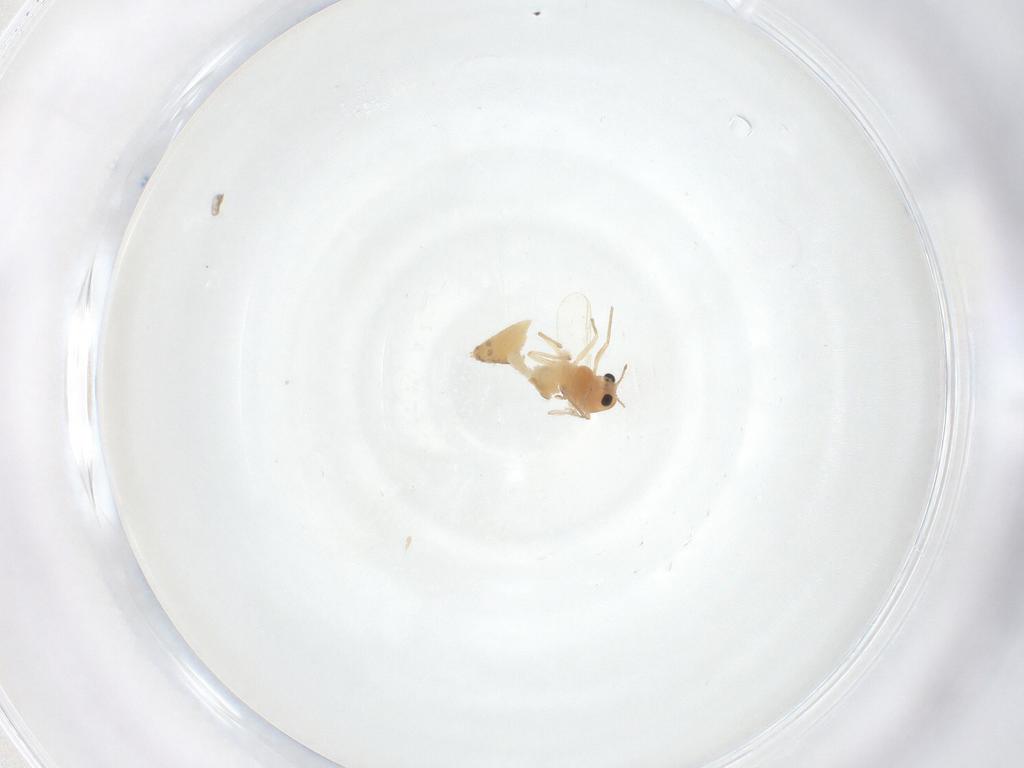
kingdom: Animalia
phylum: Arthropoda
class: Insecta
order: Diptera
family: Chironomidae
